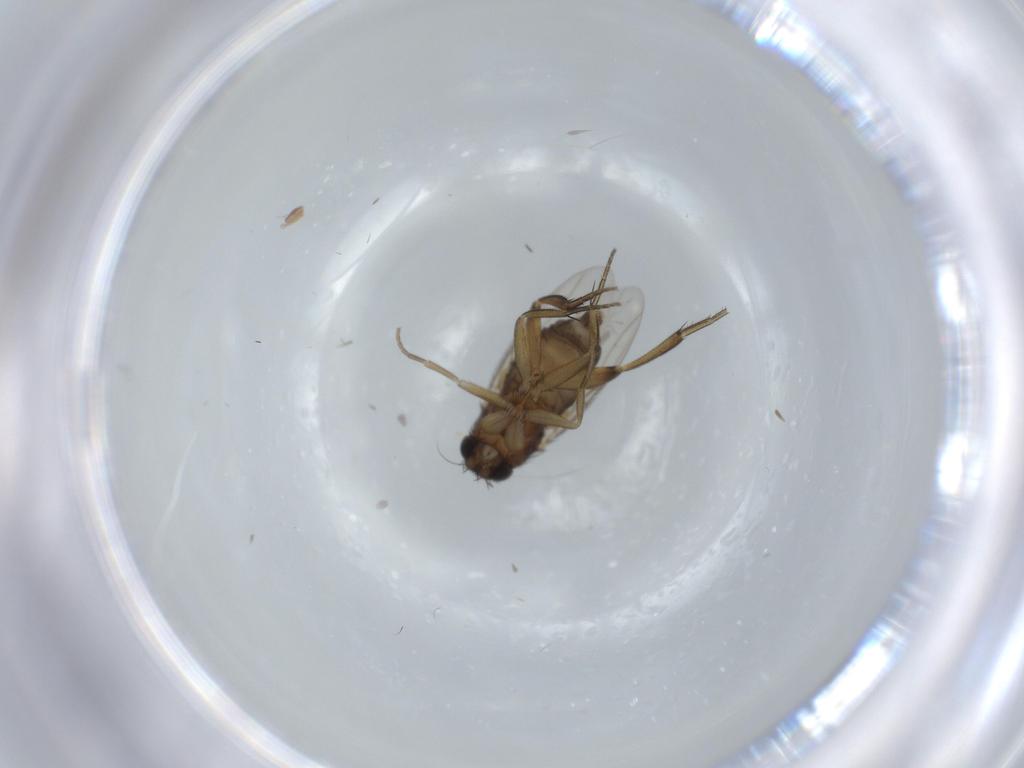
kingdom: Animalia
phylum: Arthropoda
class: Insecta
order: Diptera
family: Phoridae
